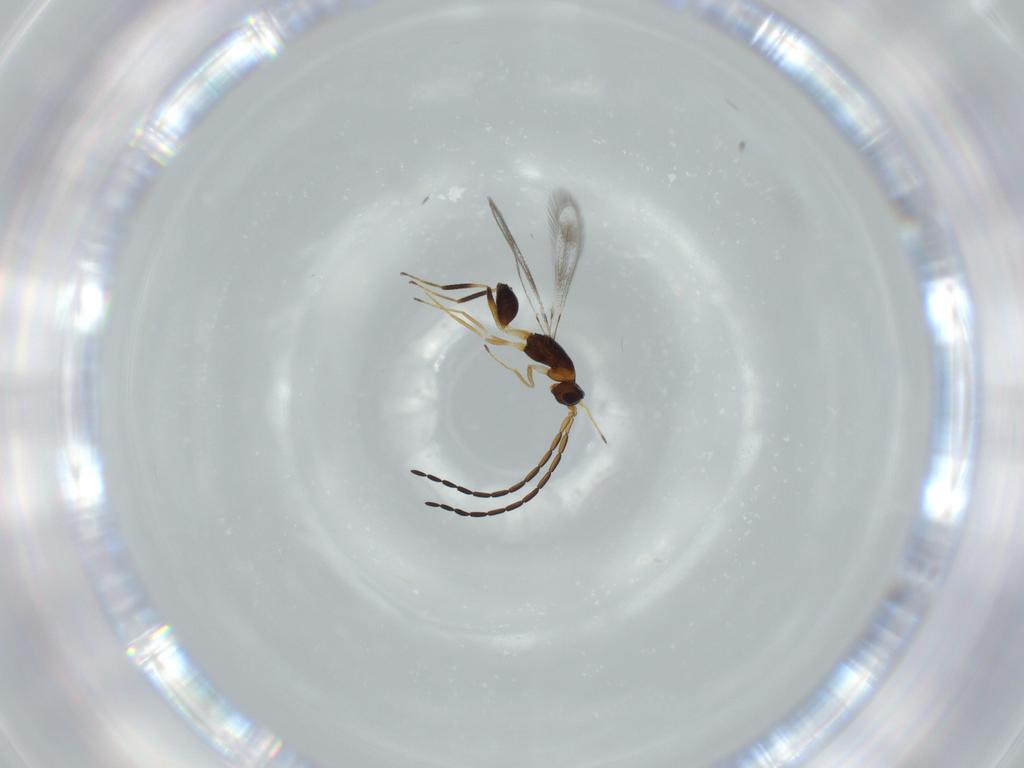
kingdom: Animalia
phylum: Arthropoda
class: Insecta
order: Hymenoptera
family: Mymaridae
